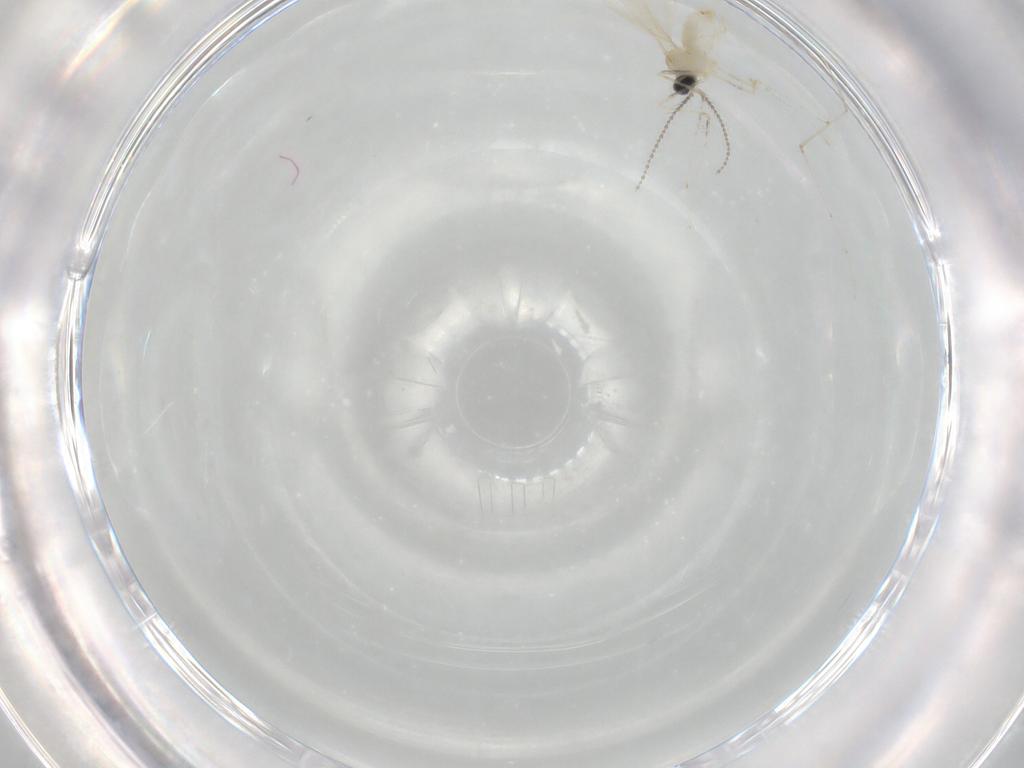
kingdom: Animalia
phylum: Arthropoda
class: Insecta
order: Diptera
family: Cecidomyiidae
